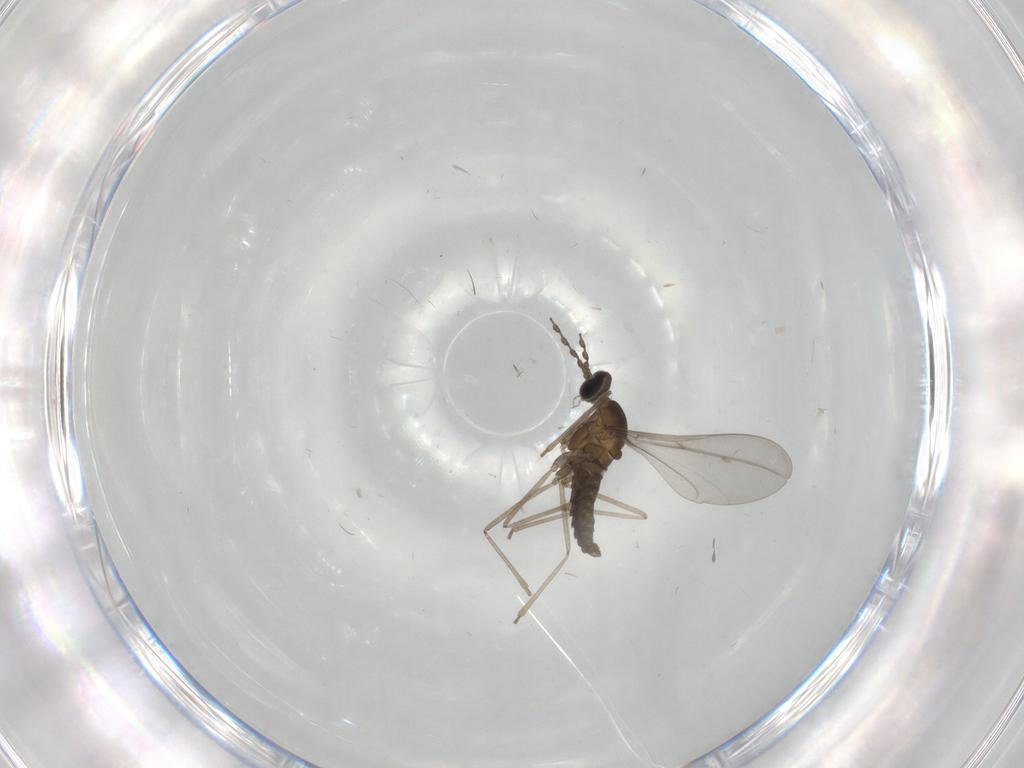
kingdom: Animalia
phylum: Arthropoda
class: Insecta
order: Diptera
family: Cecidomyiidae
